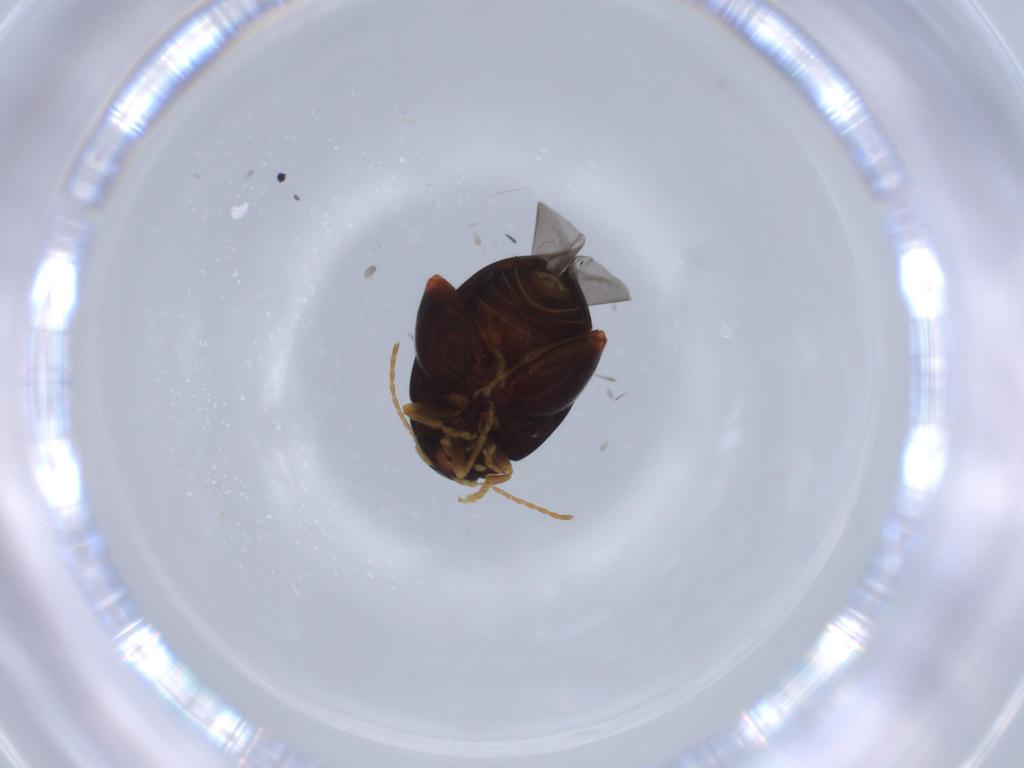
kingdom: Animalia
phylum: Arthropoda
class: Insecta
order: Coleoptera
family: Chrysomelidae
